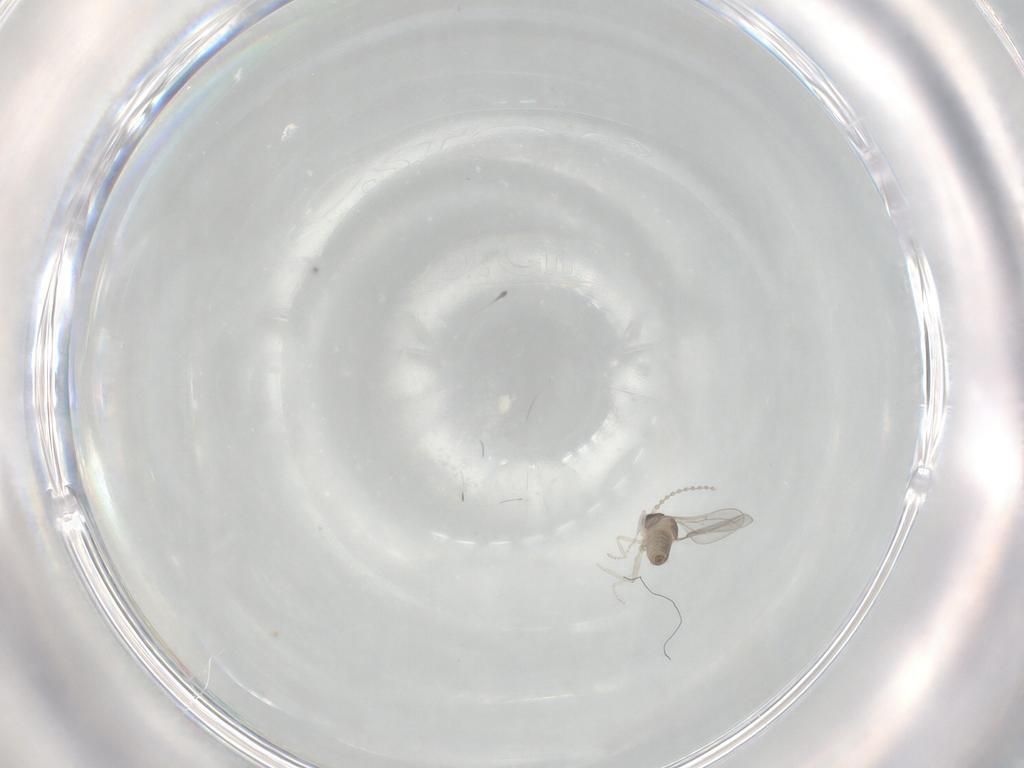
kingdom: Animalia
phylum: Arthropoda
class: Insecta
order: Diptera
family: Cecidomyiidae
